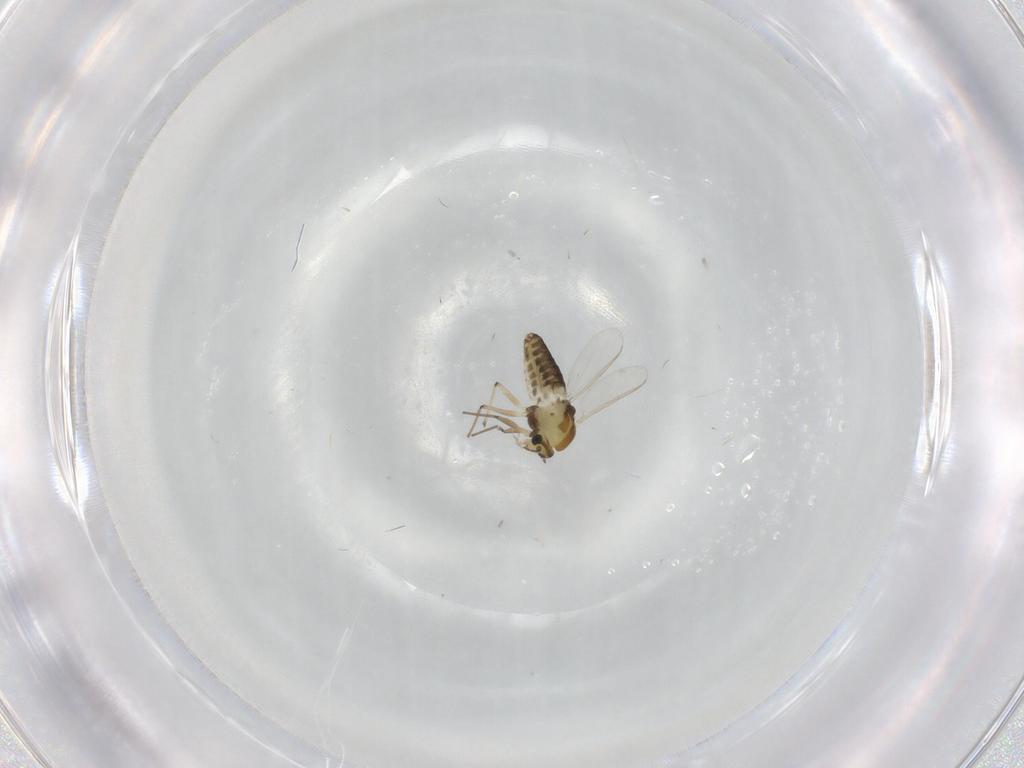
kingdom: Animalia
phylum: Arthropoda
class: Insecta
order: Diptera
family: Chironomidae
